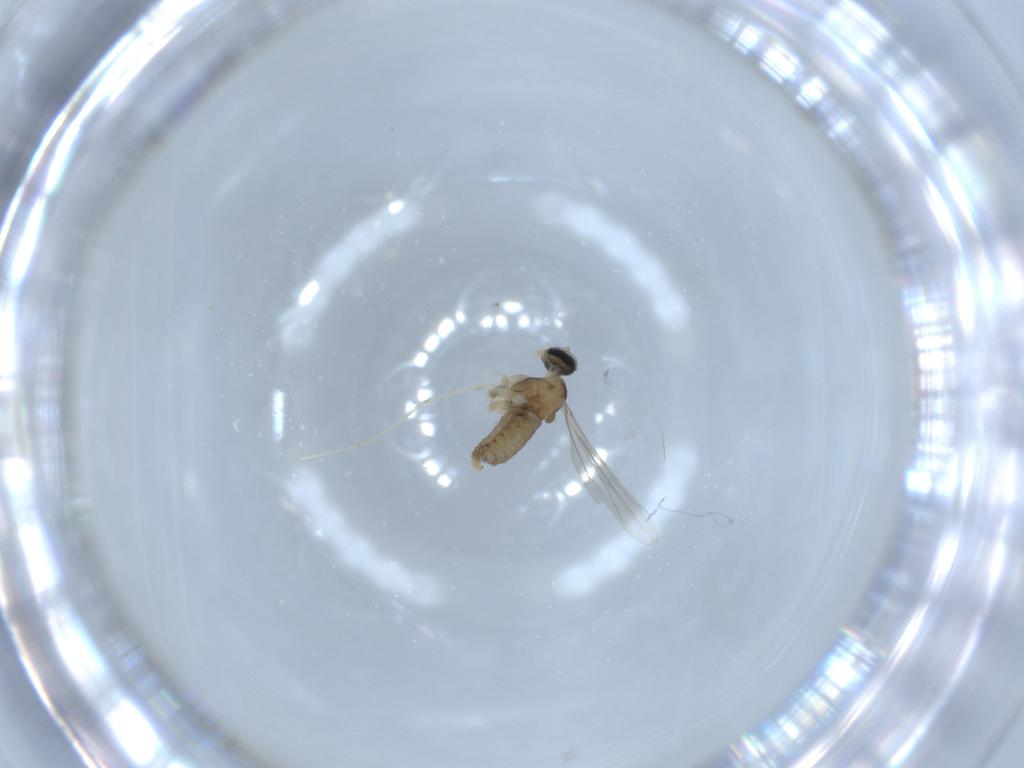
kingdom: Animalia
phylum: Arthropoda
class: Insecta
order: Diptera
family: Cecidomyiidae
